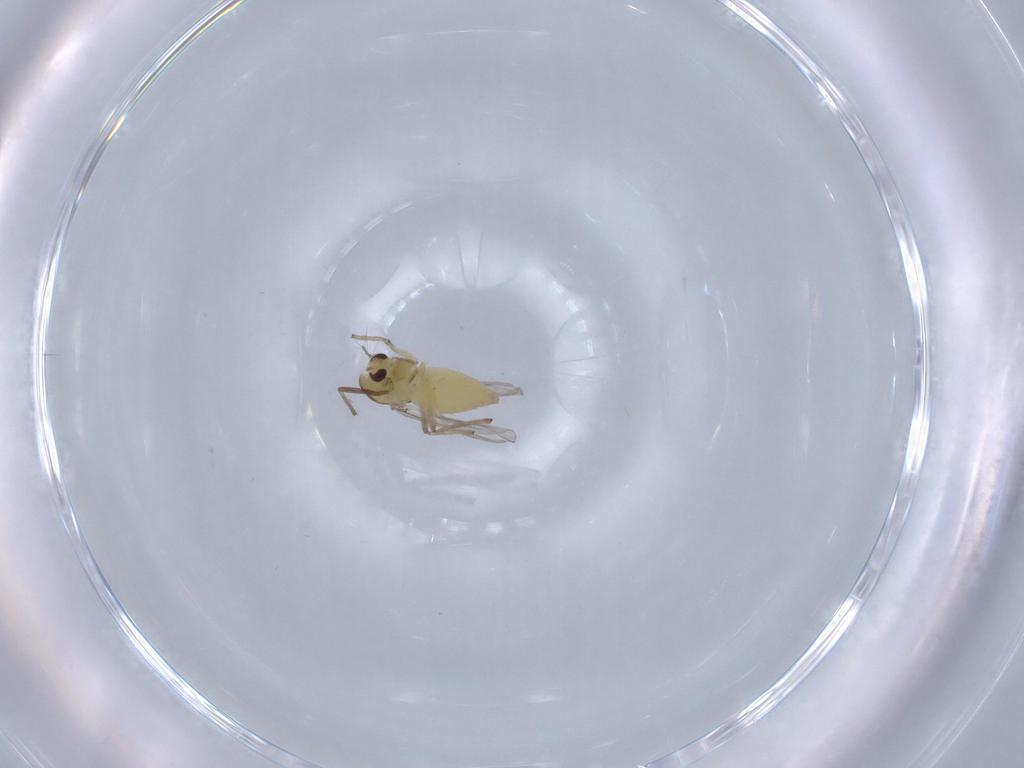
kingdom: Animalia
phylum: Arthropoda
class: Insecta
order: Diptera
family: Chironomidae
